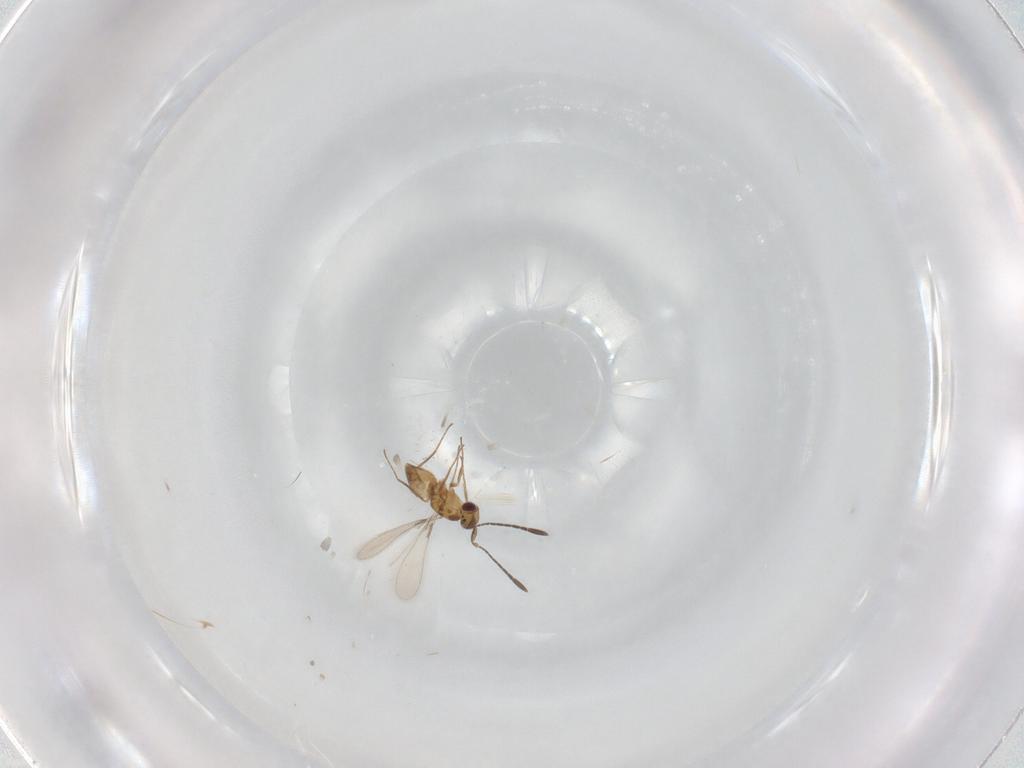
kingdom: Animalia
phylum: Arthropoda
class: Insecta
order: Hymenoptera
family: Mymaridae
